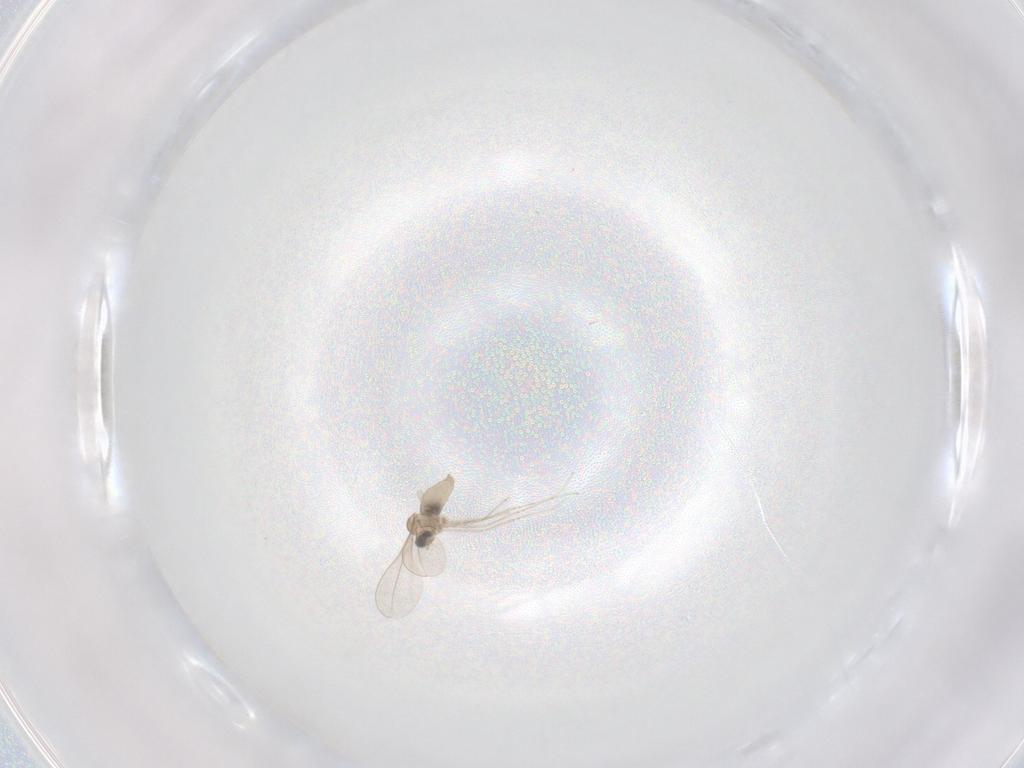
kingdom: Animalia
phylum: Arthropoda
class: Insecta
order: Diptera
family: Cecidomyiidae
